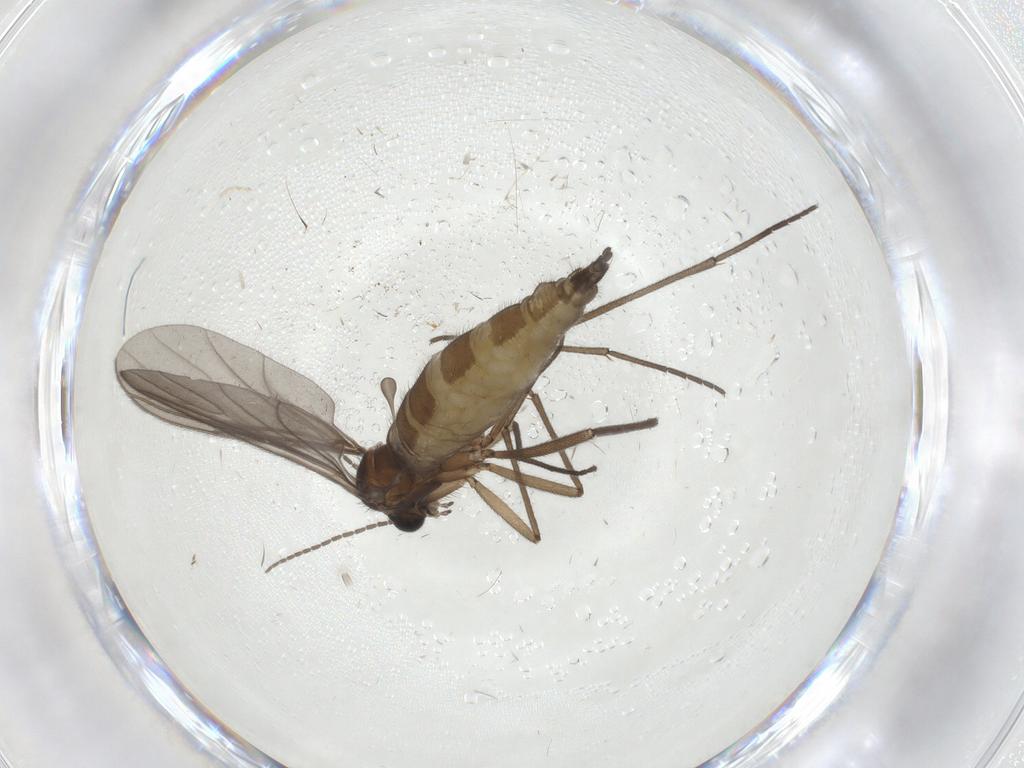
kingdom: Animalia
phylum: Arthropoda
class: Insecta
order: Diptera
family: Sciaridae
